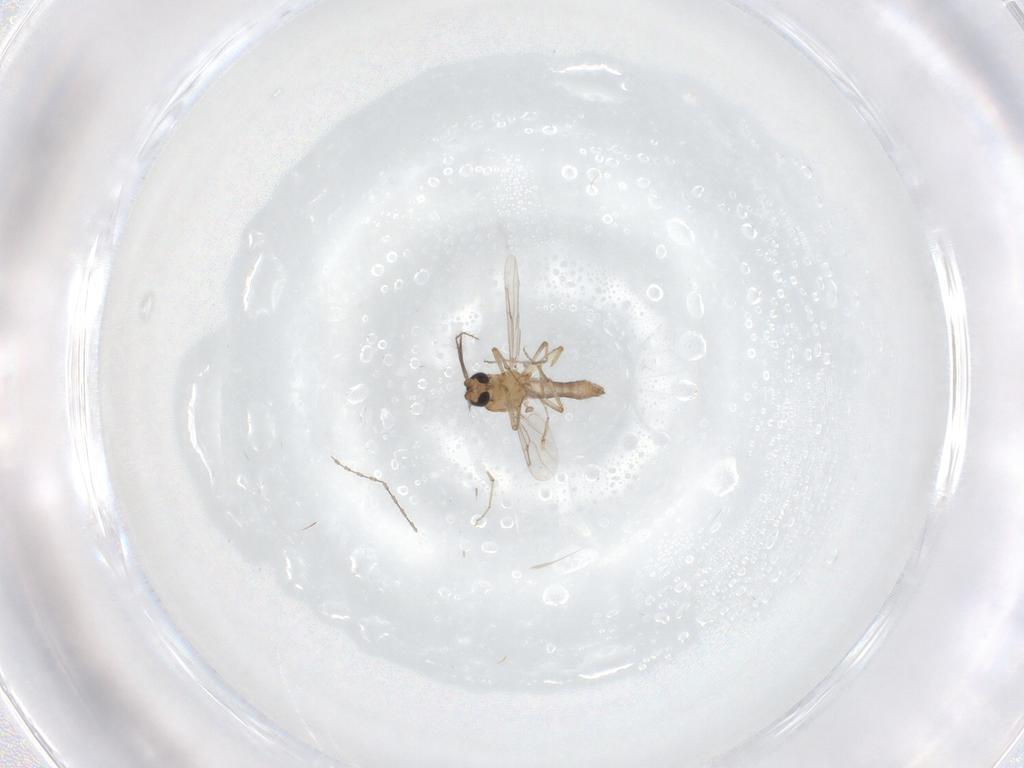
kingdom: Animalia
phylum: Arthropoda
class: Insecta
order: Diptera
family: Ceratopogonidae
